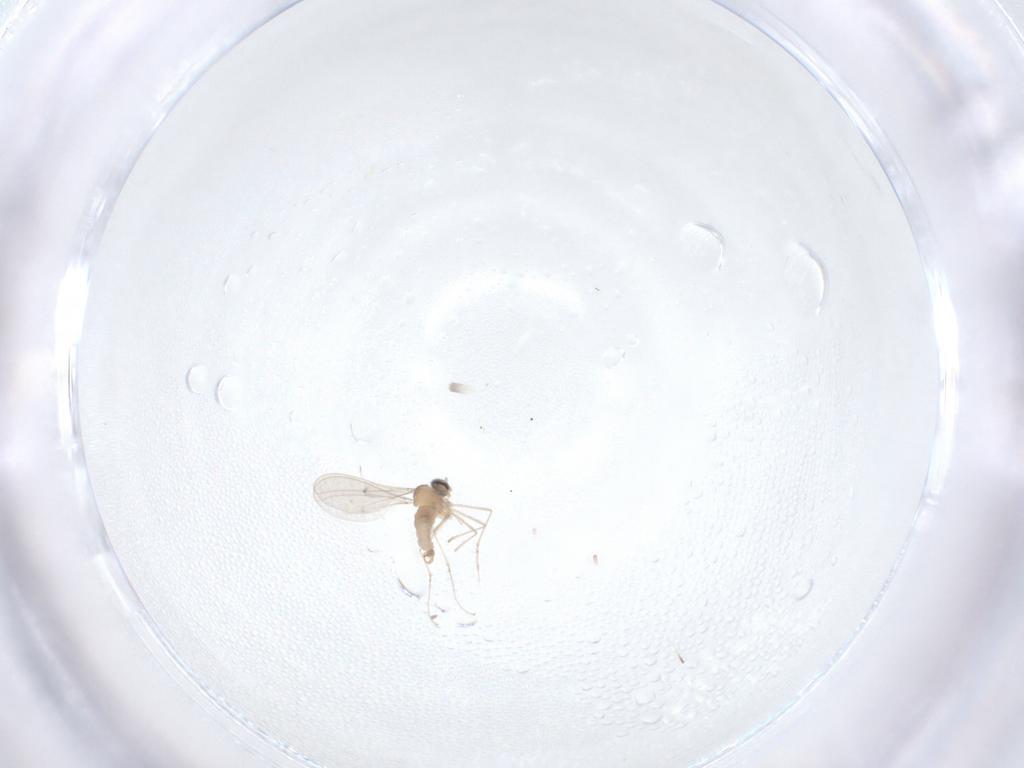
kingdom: Animalia
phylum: Arthropoda
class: Insecta
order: Diptera
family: Cecidomyiidae
